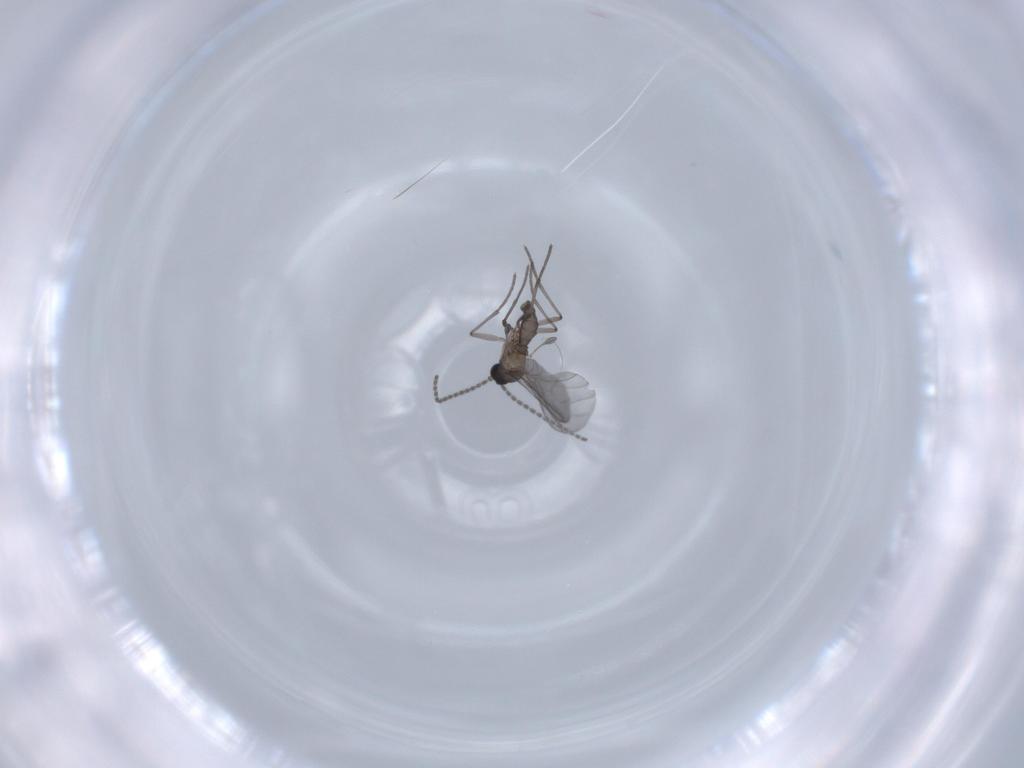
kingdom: Animalia
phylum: Arthropoda
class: Insecta
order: Diptera
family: Sciaridae
